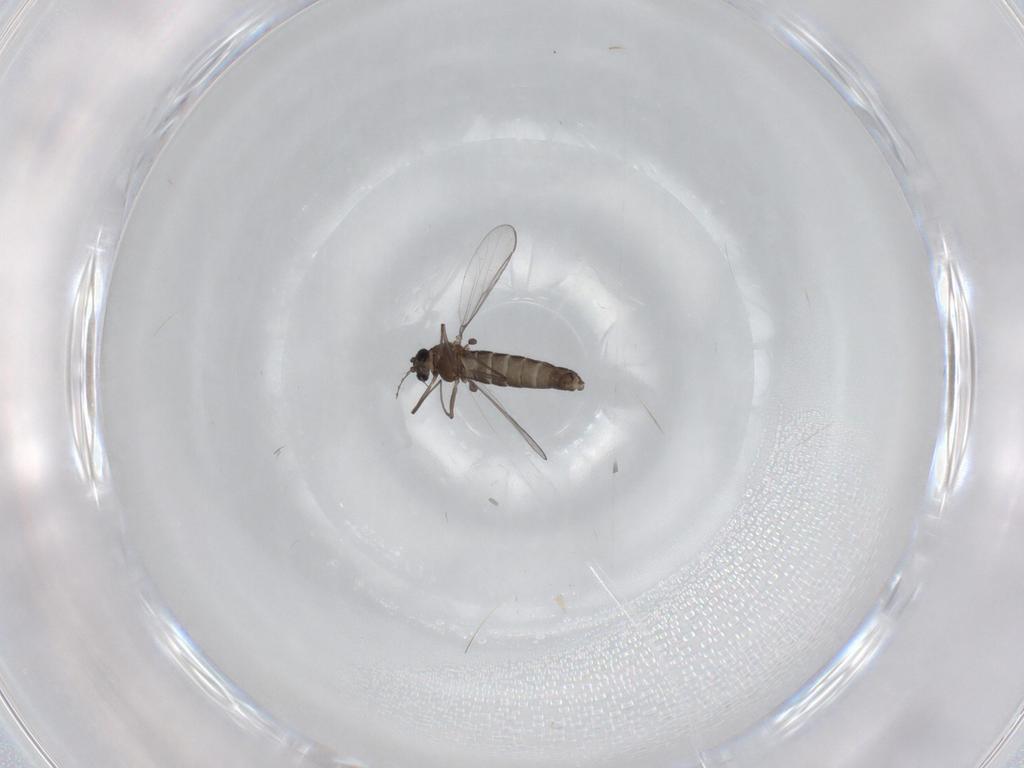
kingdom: Animalia
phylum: Arthropoda
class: Insecta
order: Diptera
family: Chironomidae
